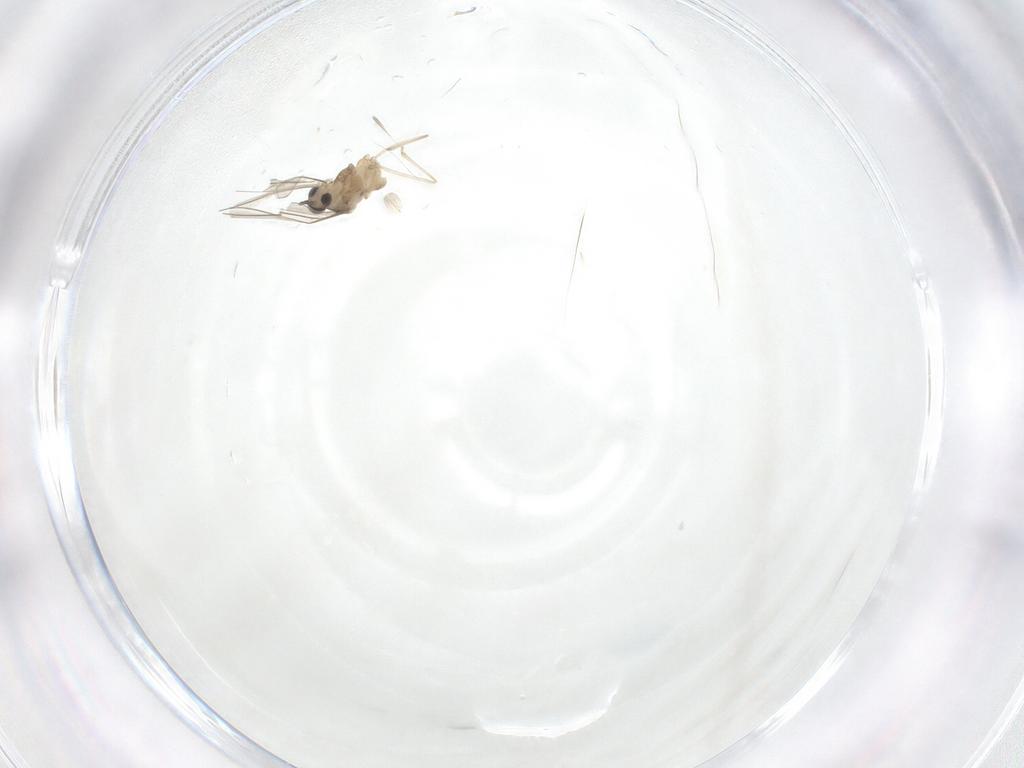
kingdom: Animalia
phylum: Arthropoda
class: Insecta
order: Diptera
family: Cecidomyiidae
